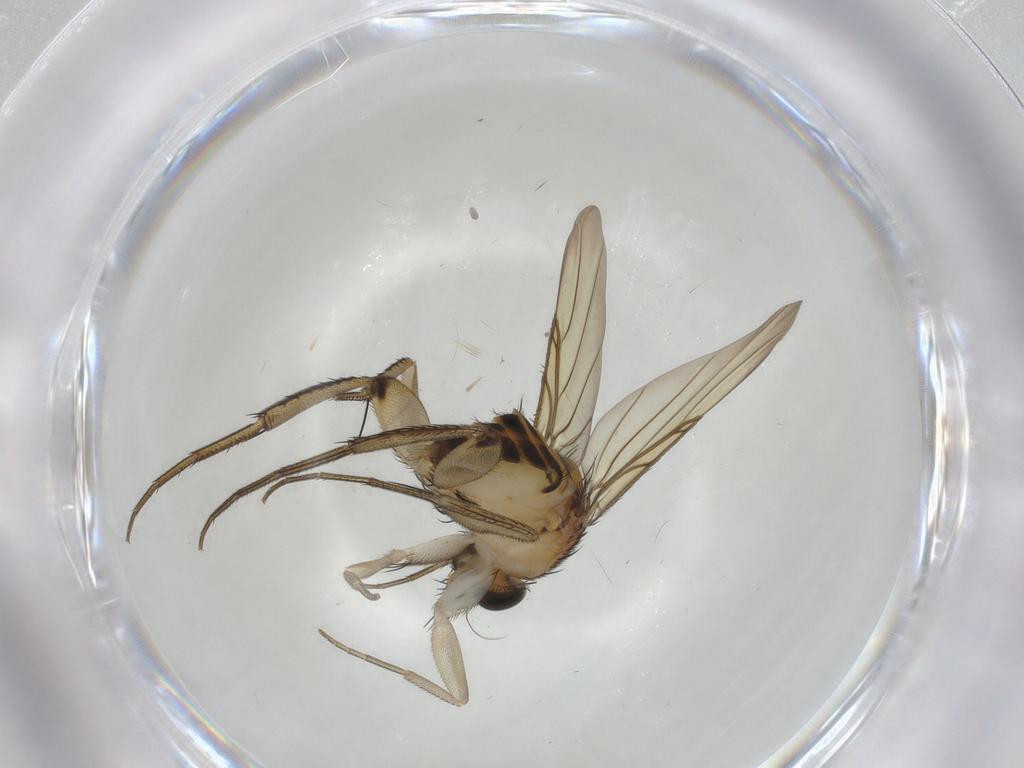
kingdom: Animalia
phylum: Arthropoda
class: Insecta
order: Diptera
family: Phoridae
